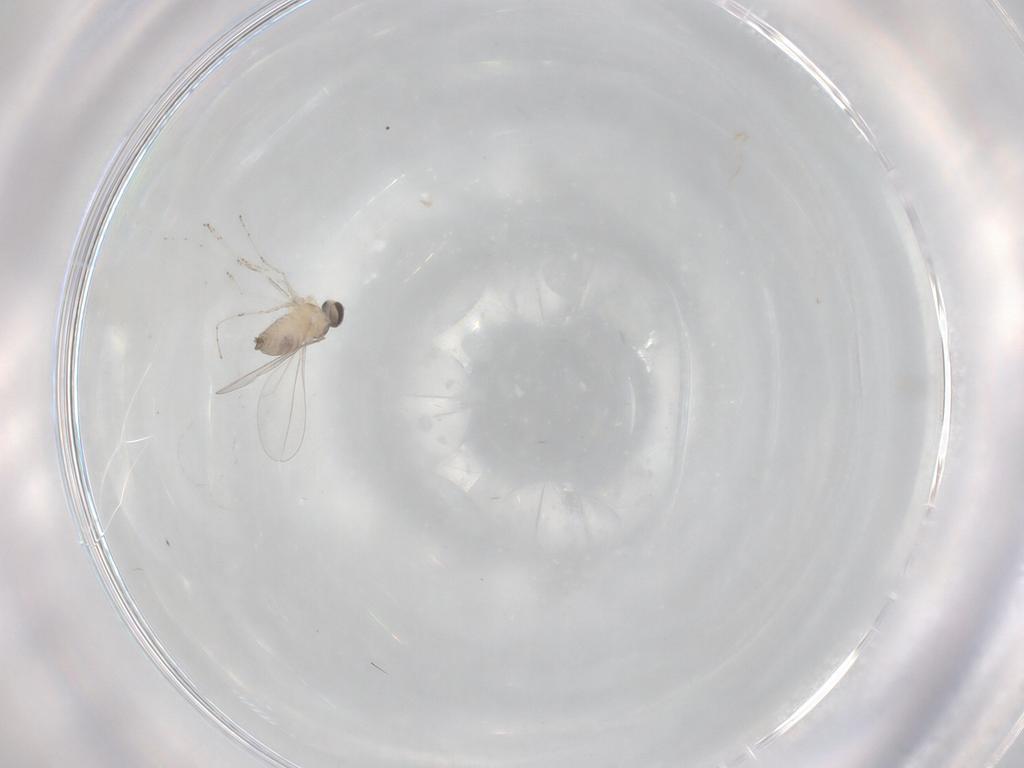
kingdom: Animalia
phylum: Arthropoda
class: Insecta
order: Diptera
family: Cecidomyiidae
